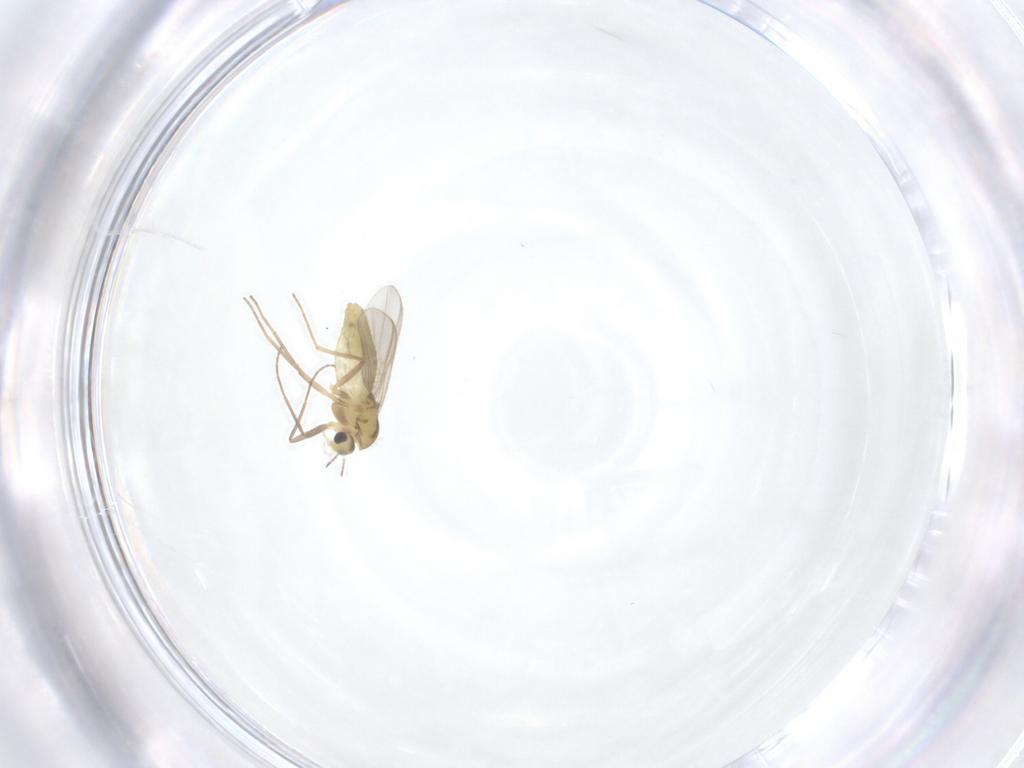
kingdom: Animalia
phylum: Arthropoda
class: Insecta
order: Diptera
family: Chironomidae
